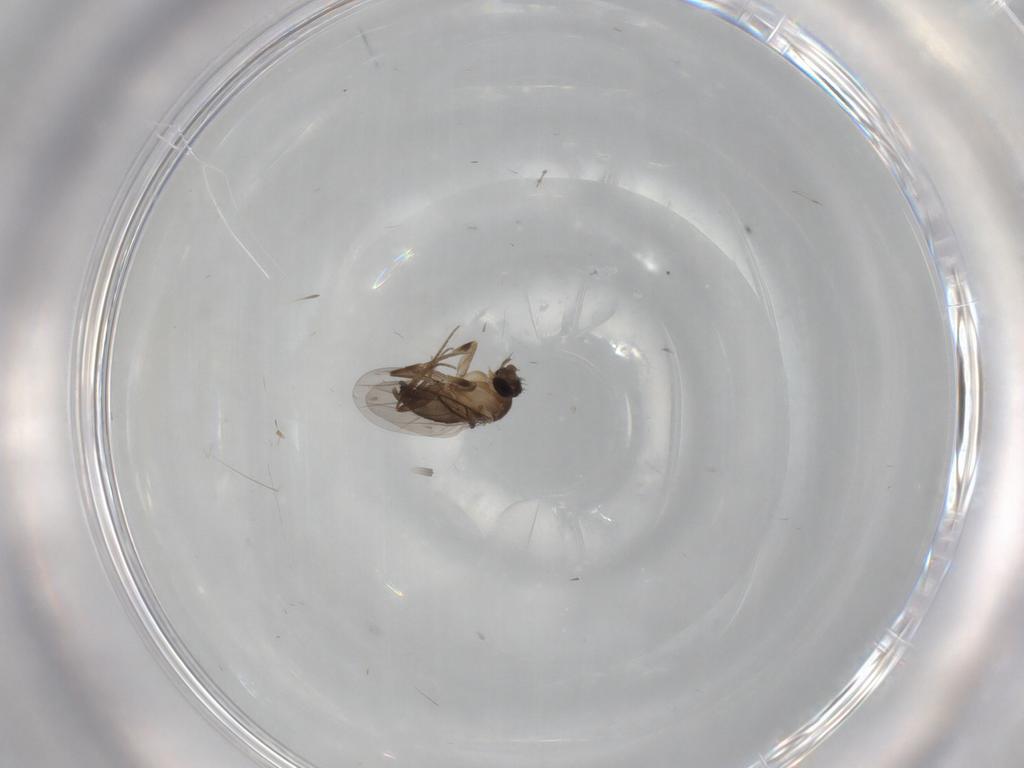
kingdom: Animalia
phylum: Arthropoda
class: Insecta
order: Diptera
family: Phoridae
